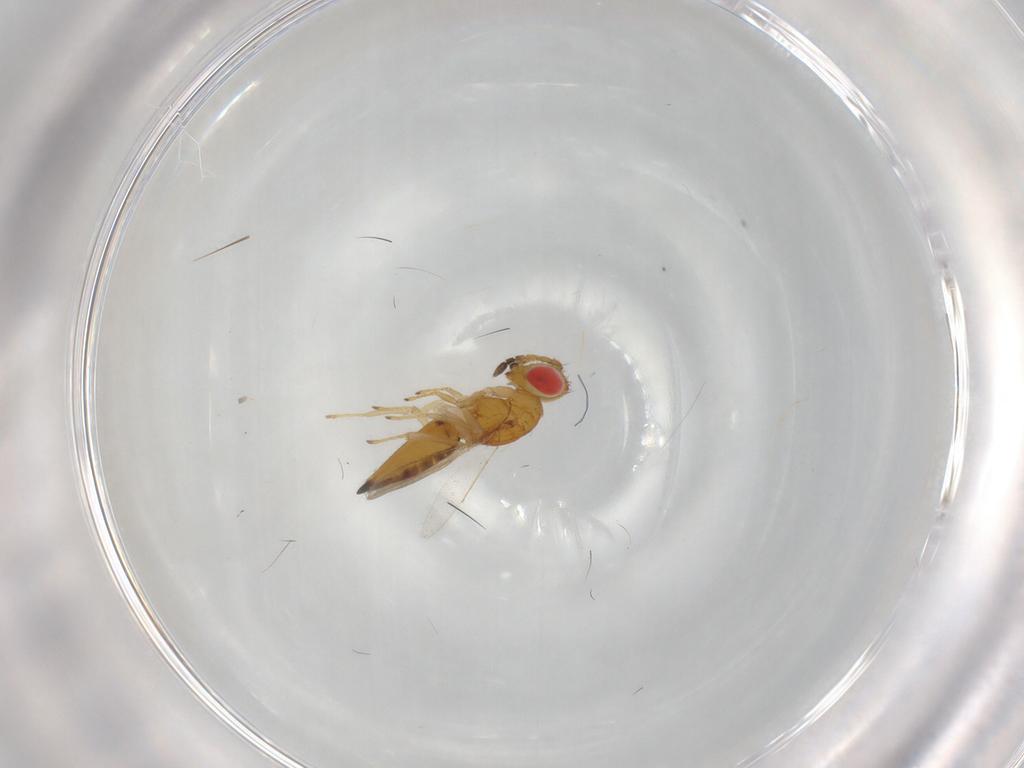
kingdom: Animalia
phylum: Arthropoda
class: Insecta
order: Hymenoptera
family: Eulophidae
